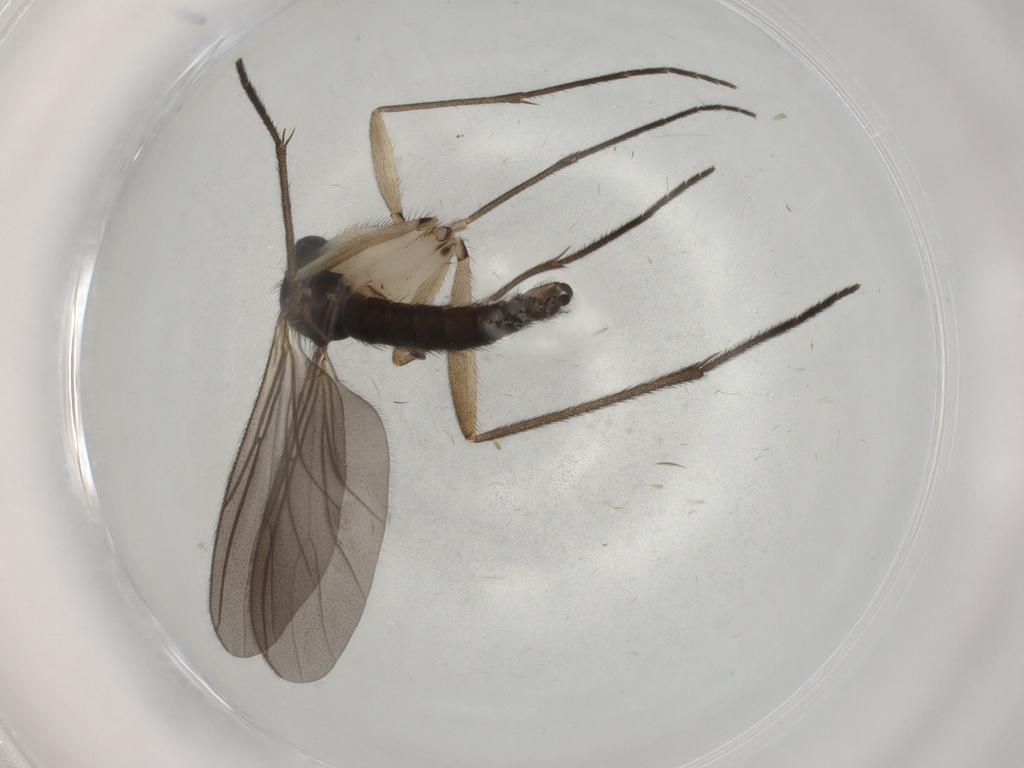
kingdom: Animalia
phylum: Arthropoda
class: Insecta
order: Diptera
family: Sciaridae
